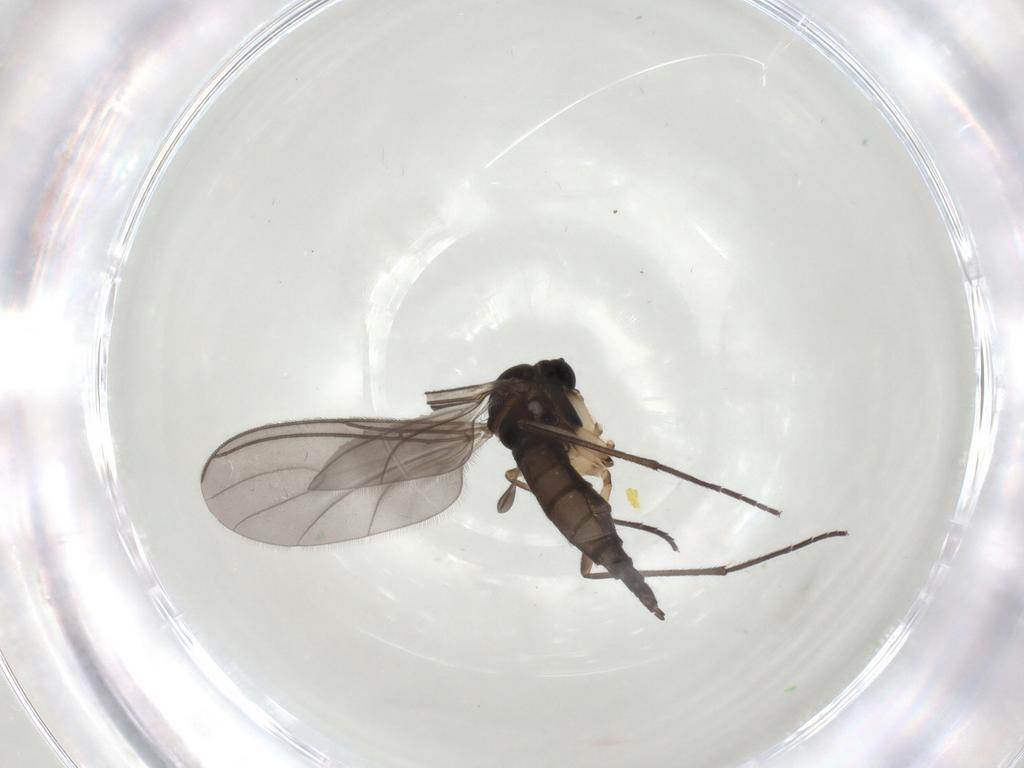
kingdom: Animalia
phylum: Arthropoda
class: Insecta
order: Diptera
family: Sciaridae
